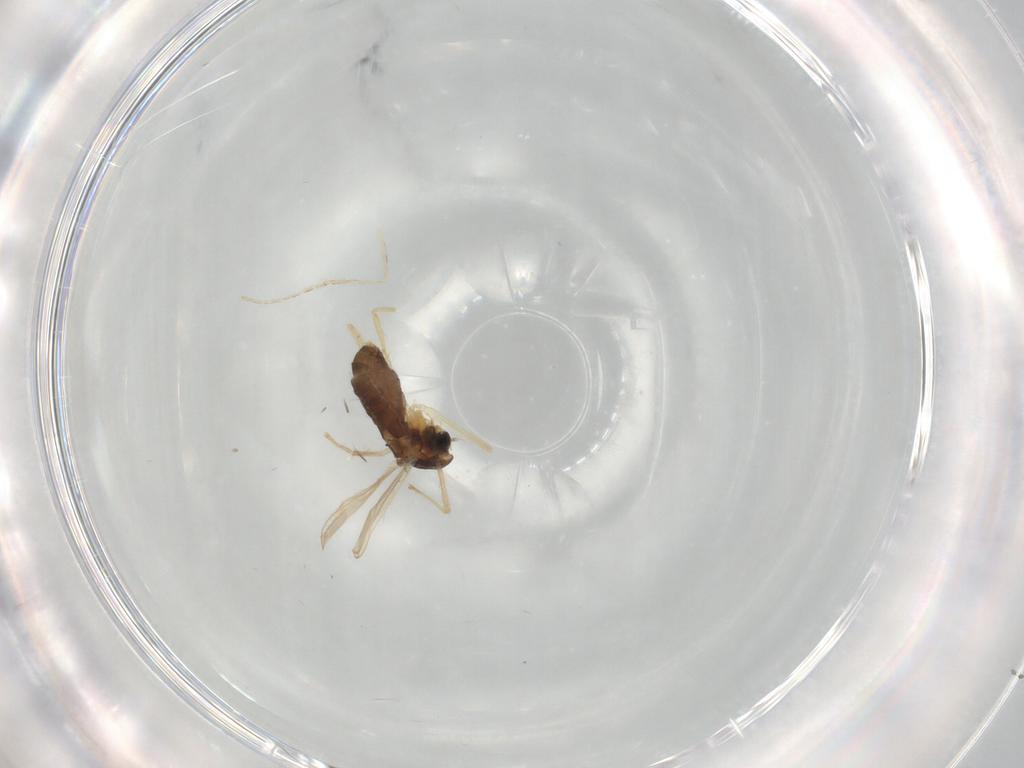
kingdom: Animalia
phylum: Arthropoda
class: Insecta
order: Diptera
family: Chironomidae
